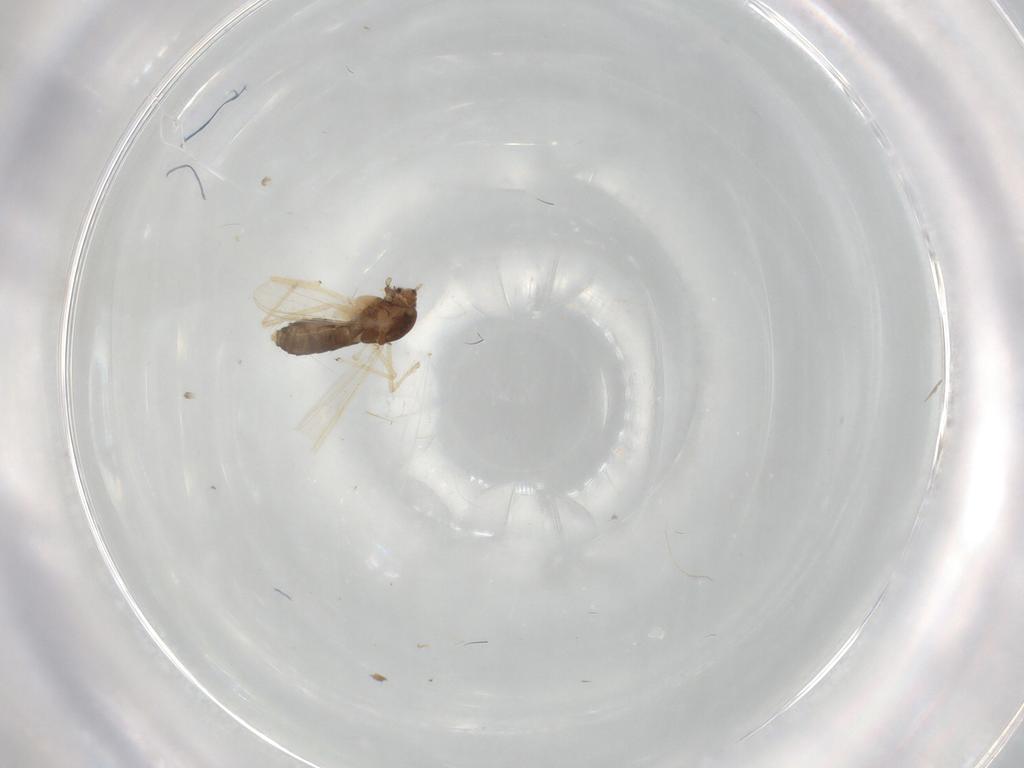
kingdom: Animalia
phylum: Arthropoda
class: Insecta
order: Diptera
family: Chironomidae
